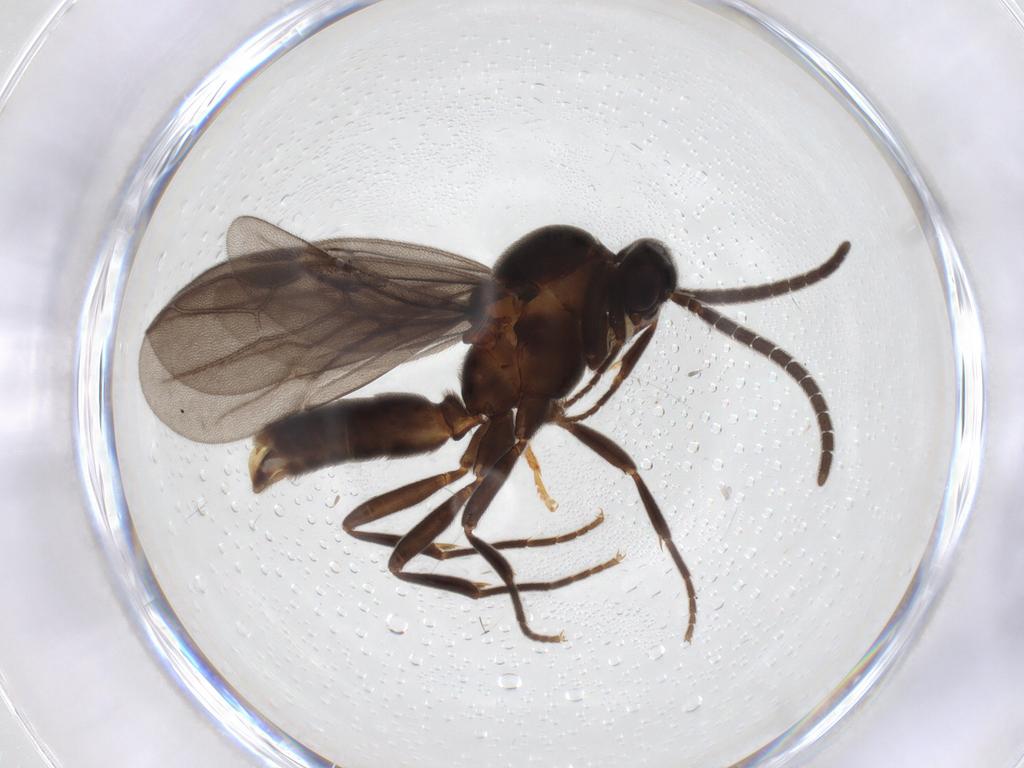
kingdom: Animalia
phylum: Arthropoda
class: Insecta
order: Hymenoptera
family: Formicidae
